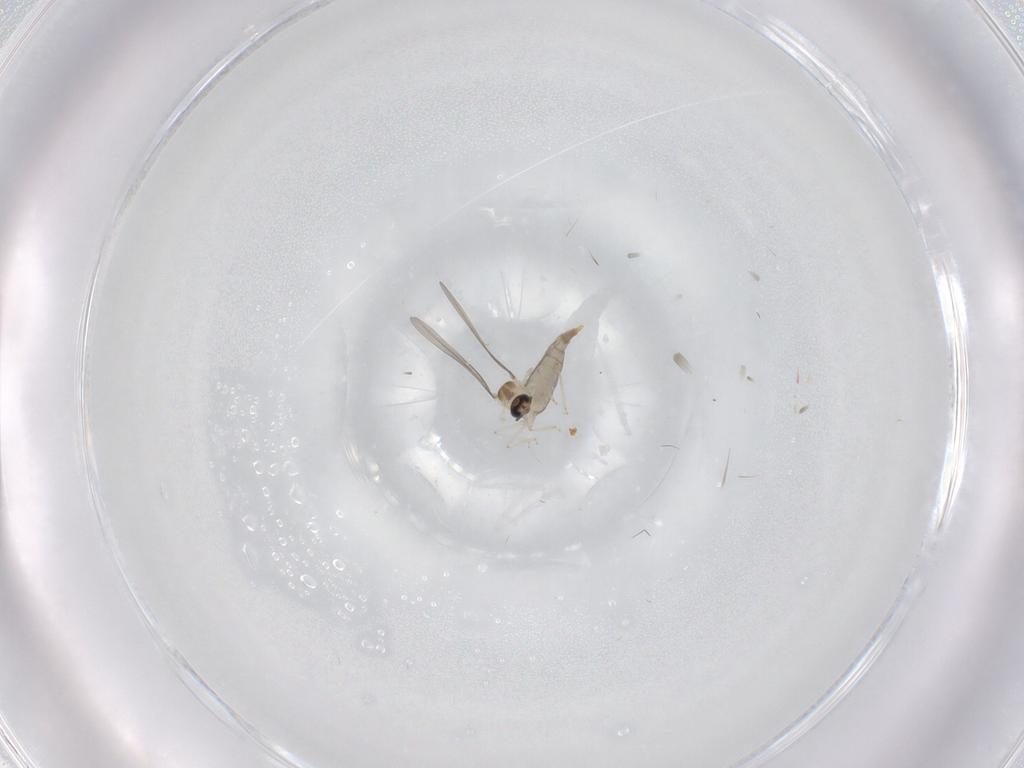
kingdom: Animalia
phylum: Arthropoda
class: Insecta
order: Diptera
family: Cecidomyiidae
